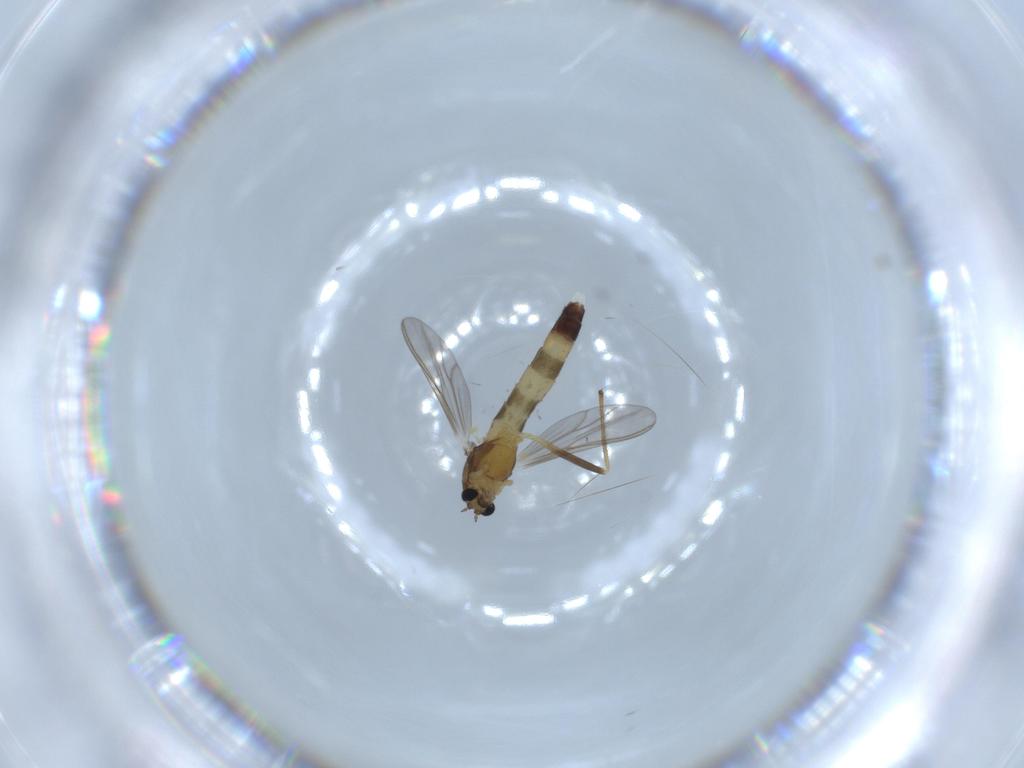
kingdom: Animalia
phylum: Arthropoda
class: Insecta
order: Diptera
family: Chironomidae
